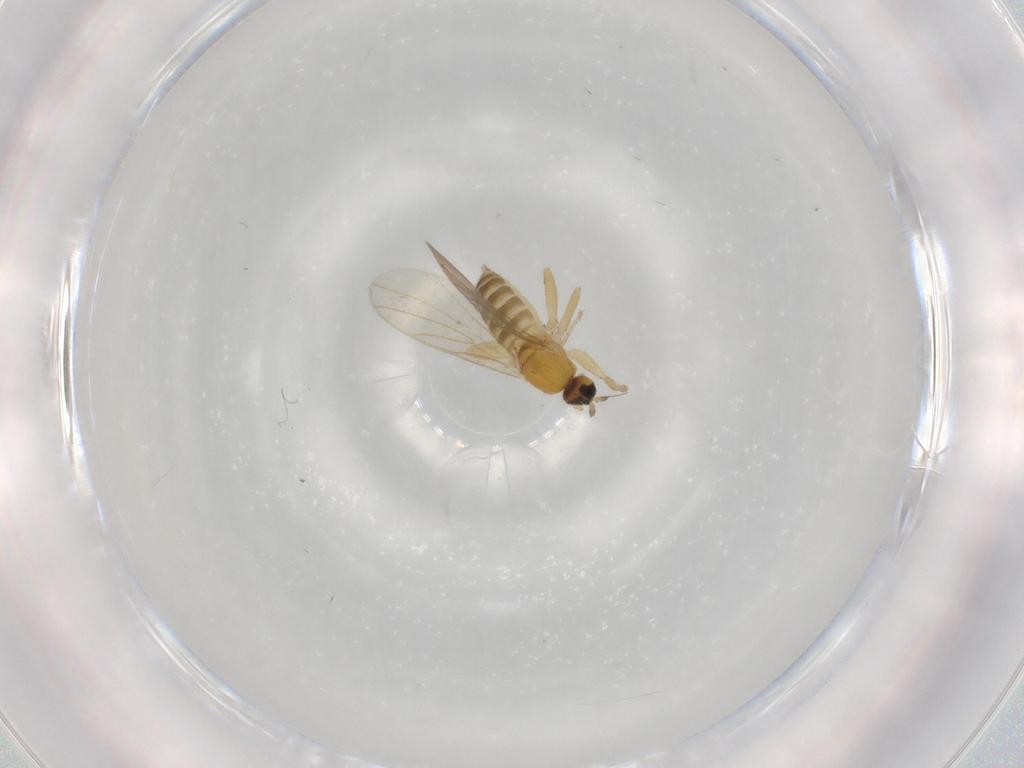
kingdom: Animalia
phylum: Arthropoda
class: Insecta
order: Diptera
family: Hybotidae
